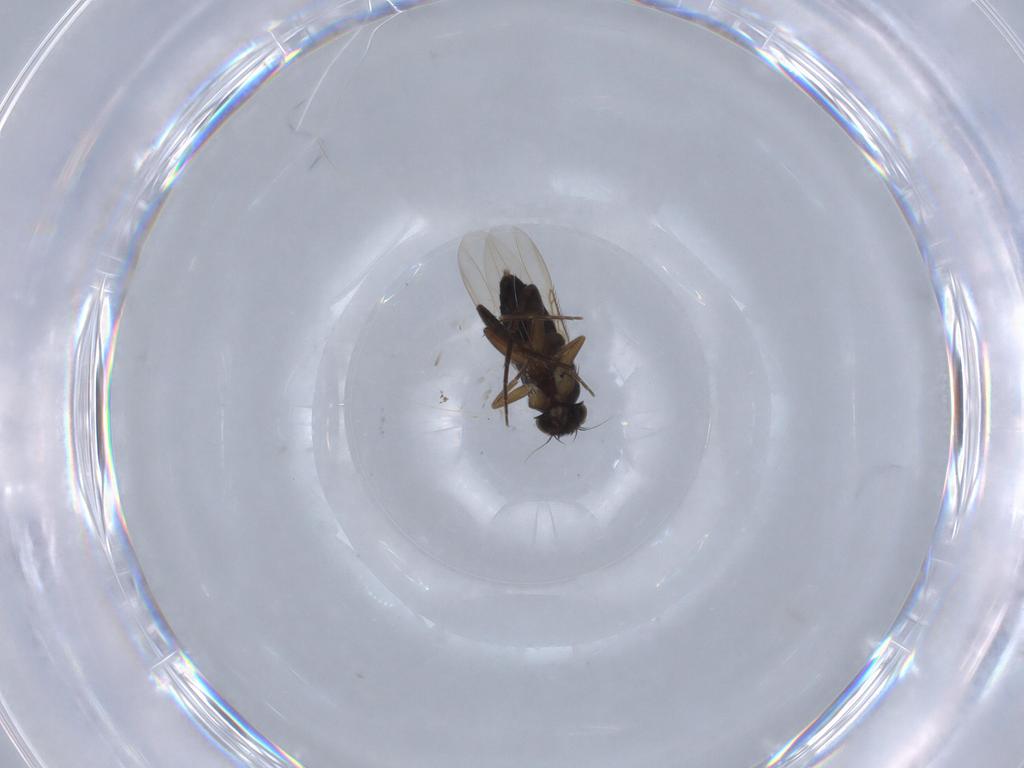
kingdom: Animalia
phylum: Arthropoda
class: Insecta
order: Diptera
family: Phoridae
